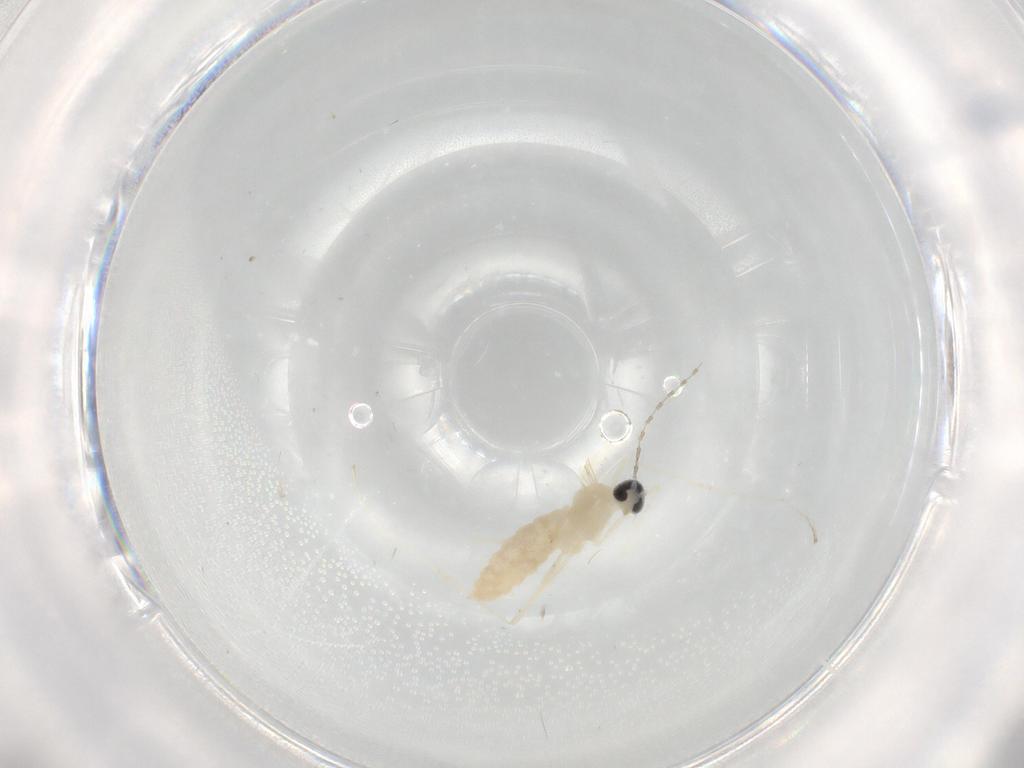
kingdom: Animalia
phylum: Arthropoda
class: Insecta
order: Diptera
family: Cecidomyiidae
